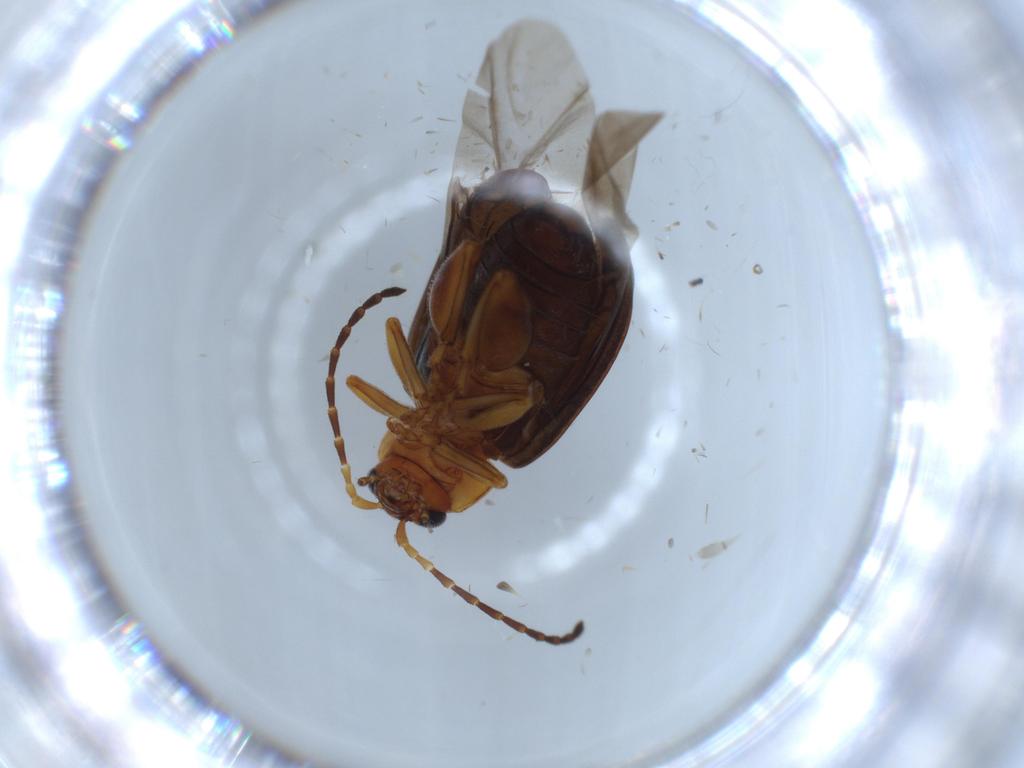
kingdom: Animalia
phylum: Arthropoda
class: Insecta
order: Coleoptera
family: Chrysomelidae
